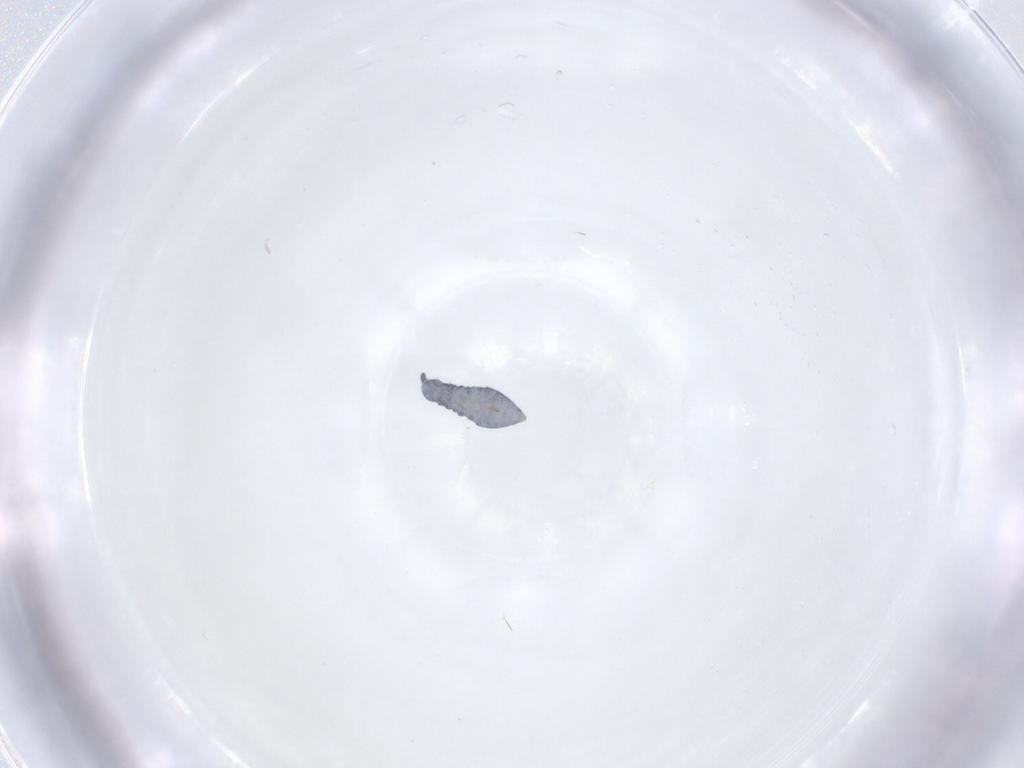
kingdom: Animalia
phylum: Arthropoda
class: Collembola
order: Poduromorpha
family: Hypogastruridae
